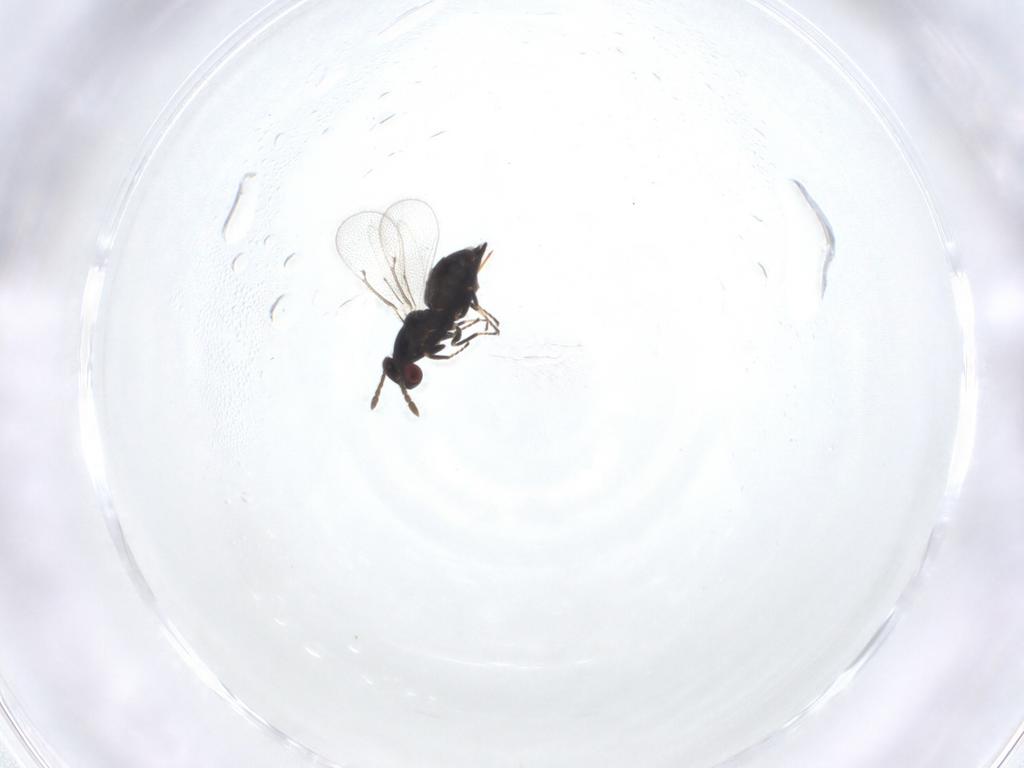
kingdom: Animalia
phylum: Arthropoda
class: Insecta
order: Hymenoptera
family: Eulophidae
